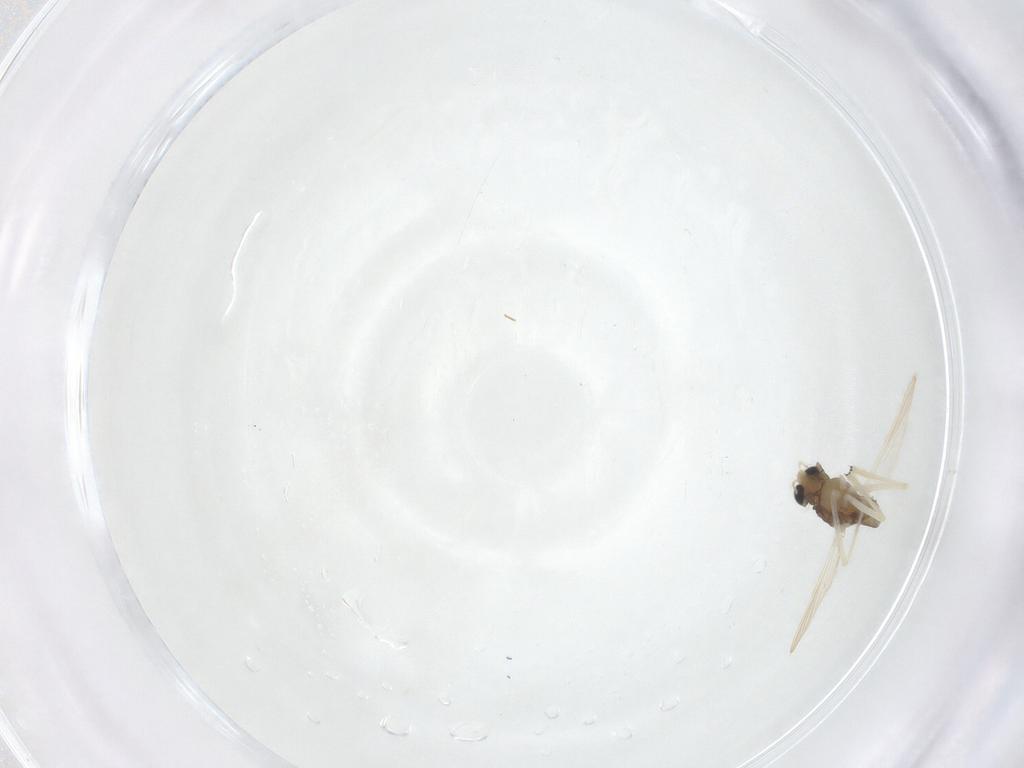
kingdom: Animalia
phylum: Arthropoda
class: Insecta
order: Diptera
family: Chironomidae
